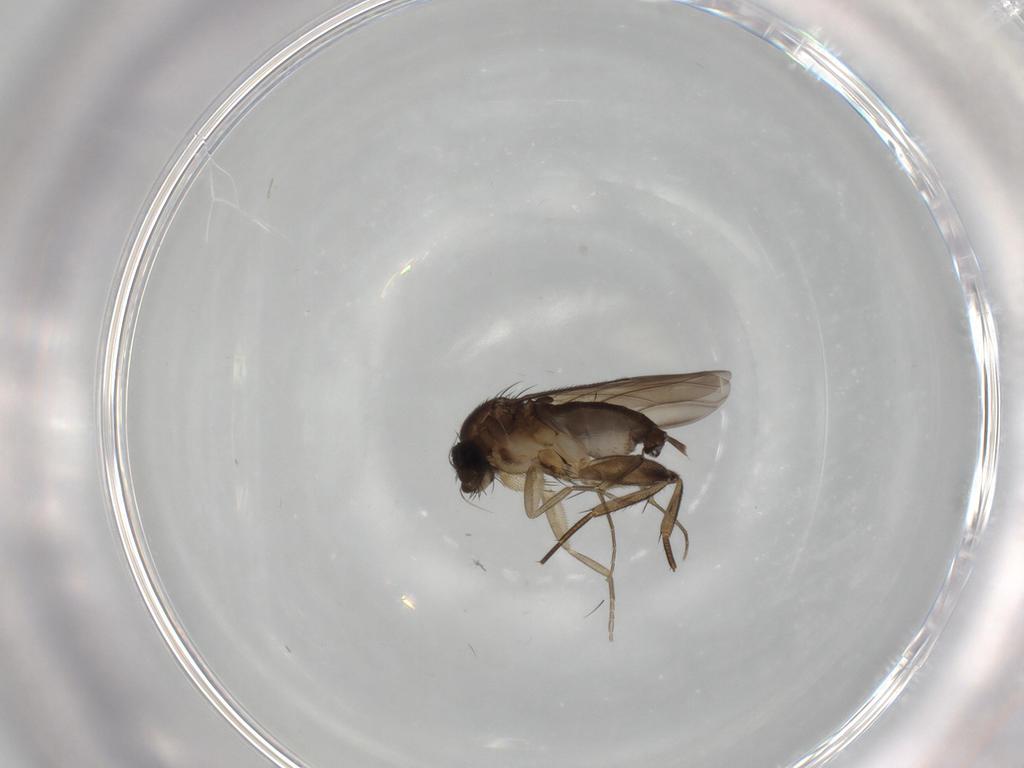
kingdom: Animalia
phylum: Arthropoda
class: Insecta
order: Diptera
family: Phoridae
